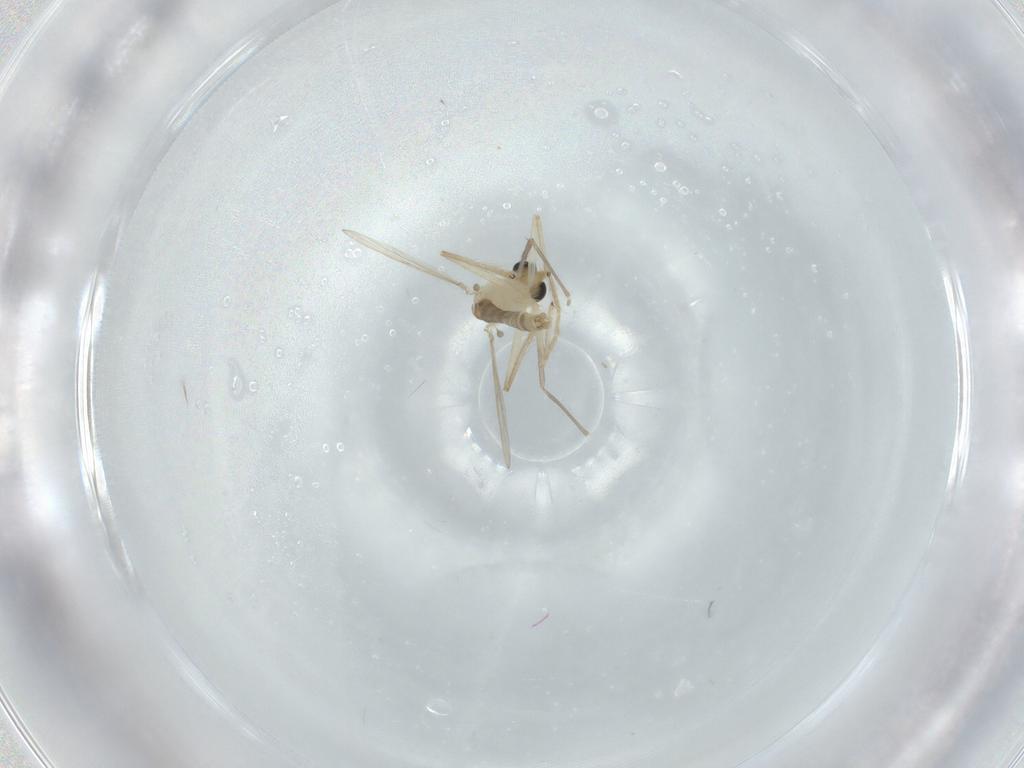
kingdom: Animalia
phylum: Arthropoda
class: Insecta
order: Diptera
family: Chironomidae
